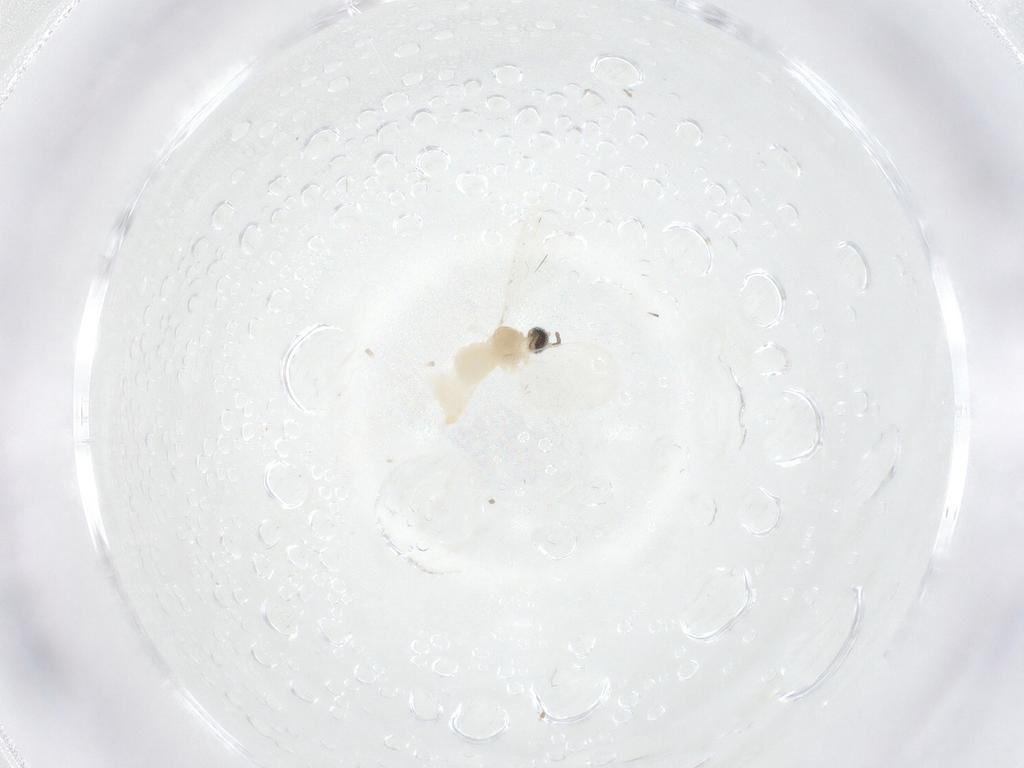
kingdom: Animalia
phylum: Arthropoda
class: Insecta
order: Diptera
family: Cecidomyiidae
